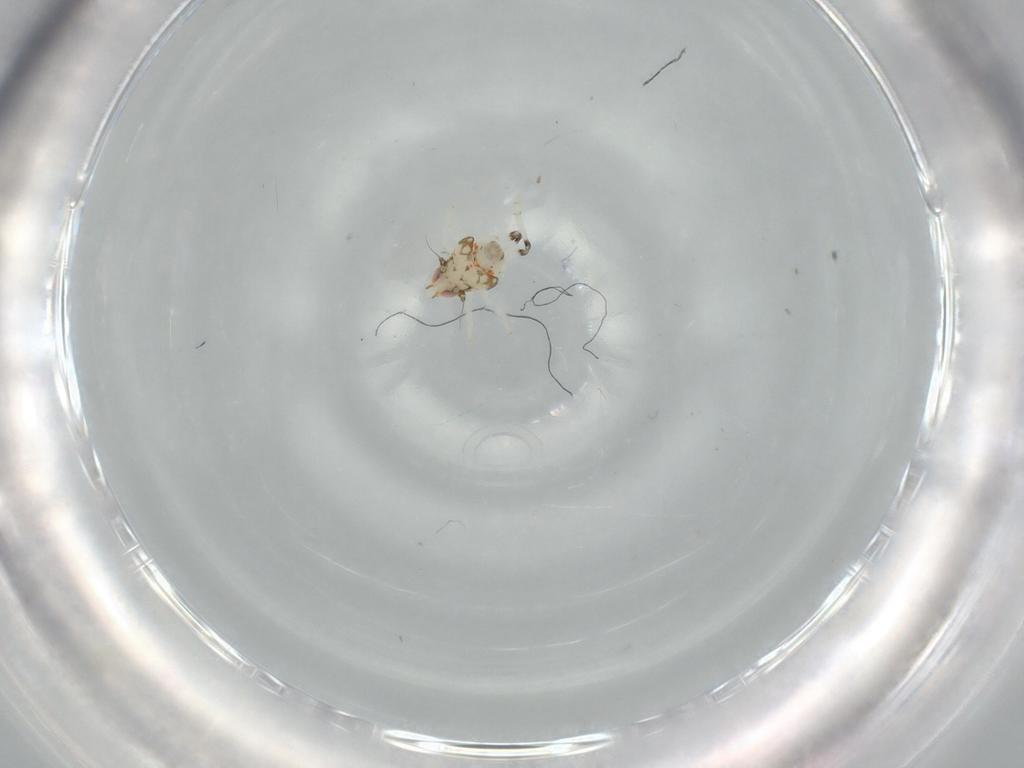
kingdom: Animalia
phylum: Arthropoda
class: Insecta
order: Hymenoptera
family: Mymaridae
